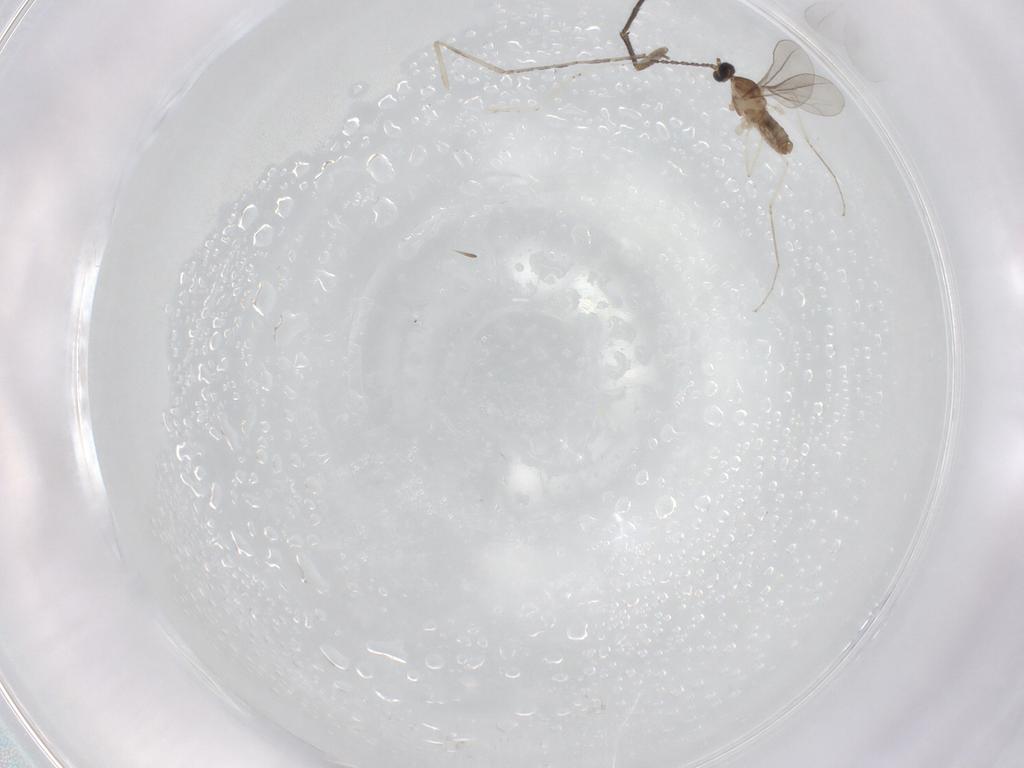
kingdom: Animalia
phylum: Arthropoda
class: Insecta
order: Diptera
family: Sciaridae
